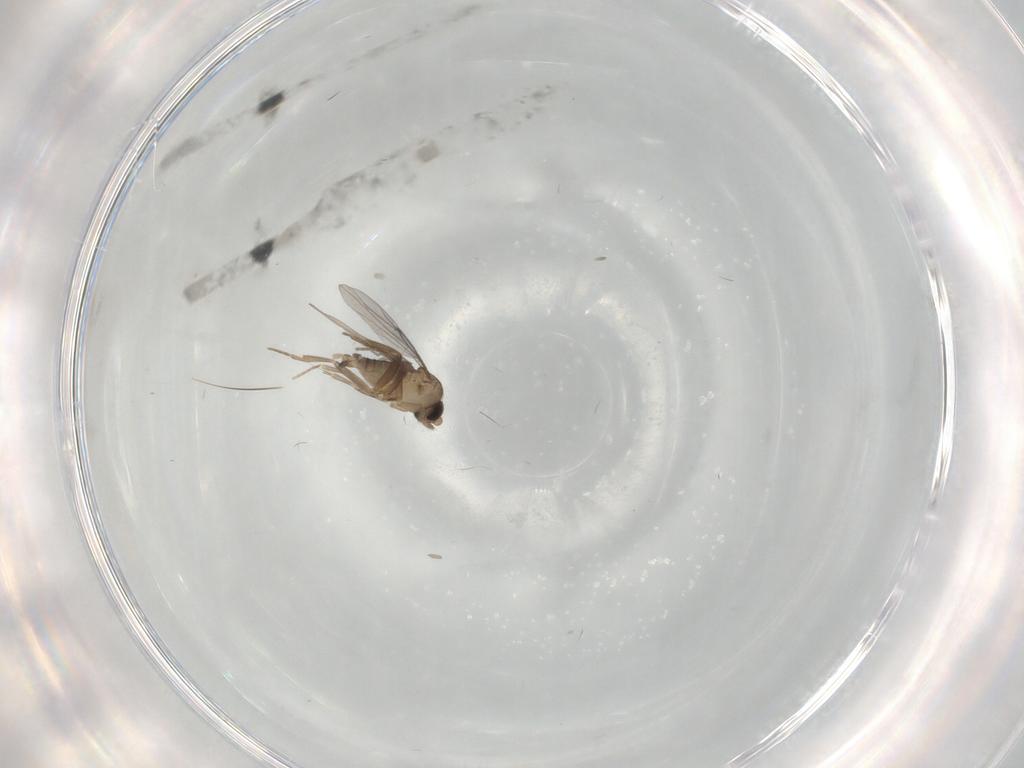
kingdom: Animalia
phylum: Arthropoda
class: Insecta
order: Diptera
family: Sciaridae
